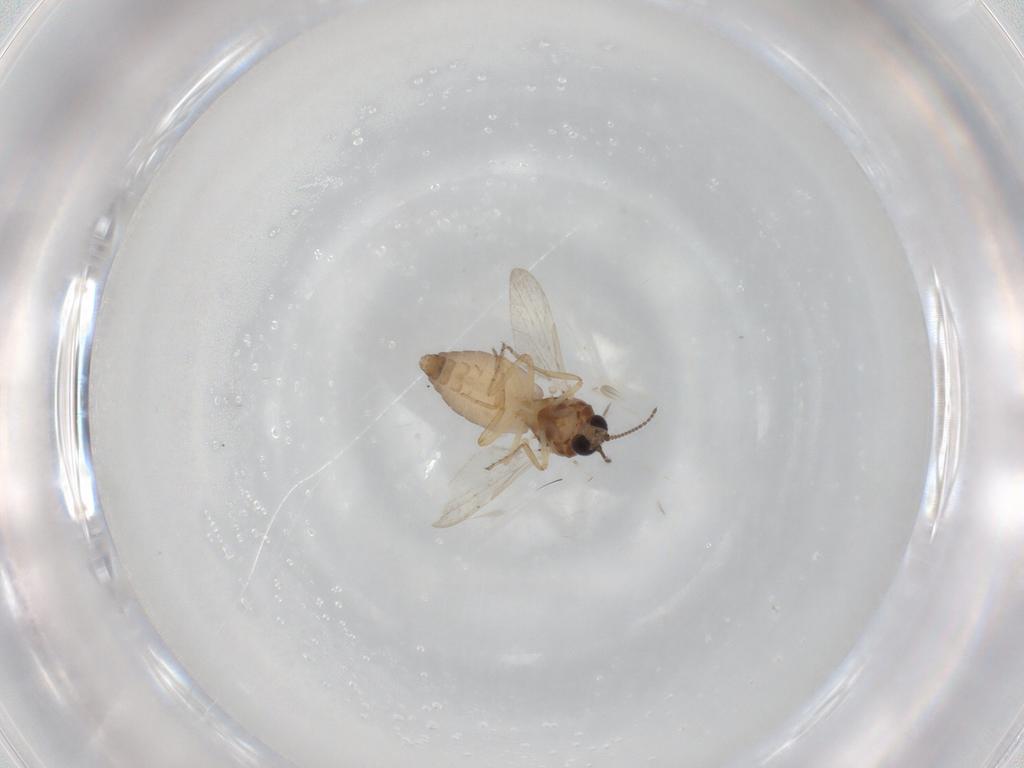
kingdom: Animalia
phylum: Arthropoda
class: Insecta
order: Diptera
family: Ceratopogonidae
